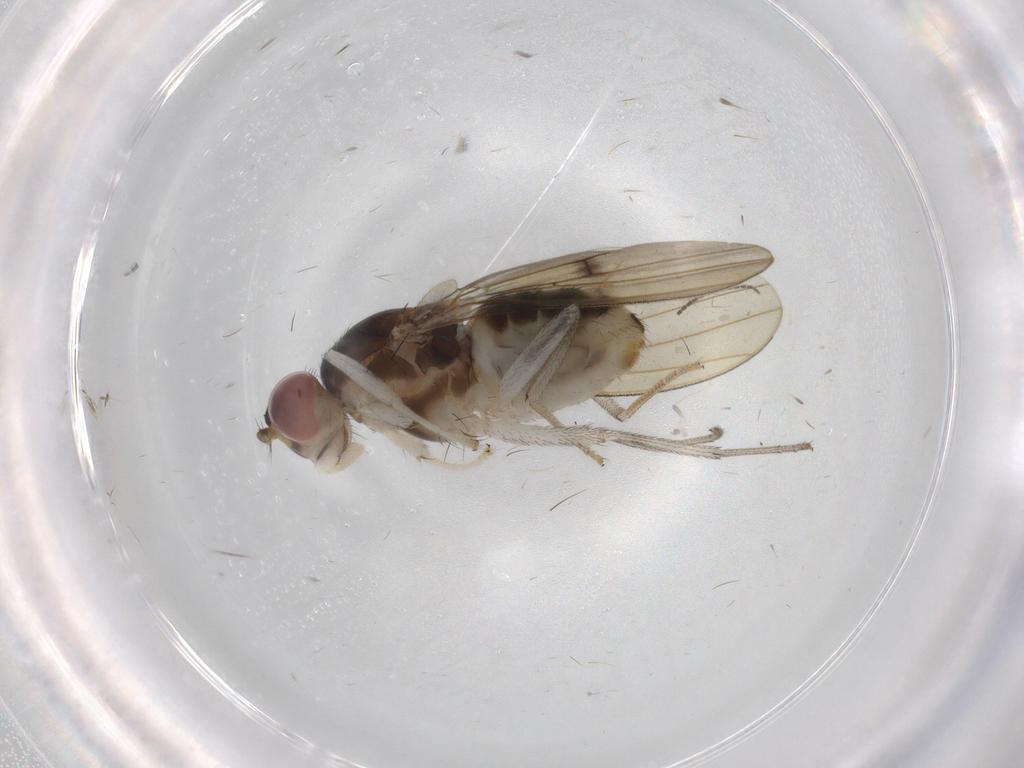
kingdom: Animalia
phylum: Arthropoda
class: Insecta
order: Diptera
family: Lauxaniidae
